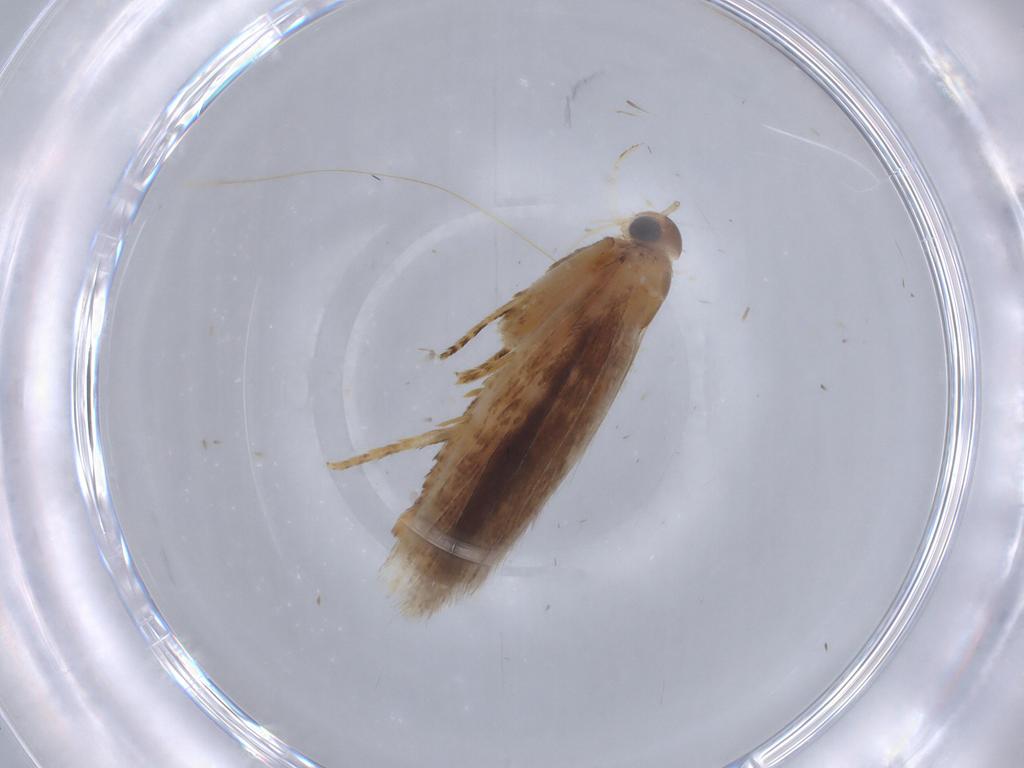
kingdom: Animalia
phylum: Arthropoda
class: Insecta
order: Lepidoptera
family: Gelechiidae
